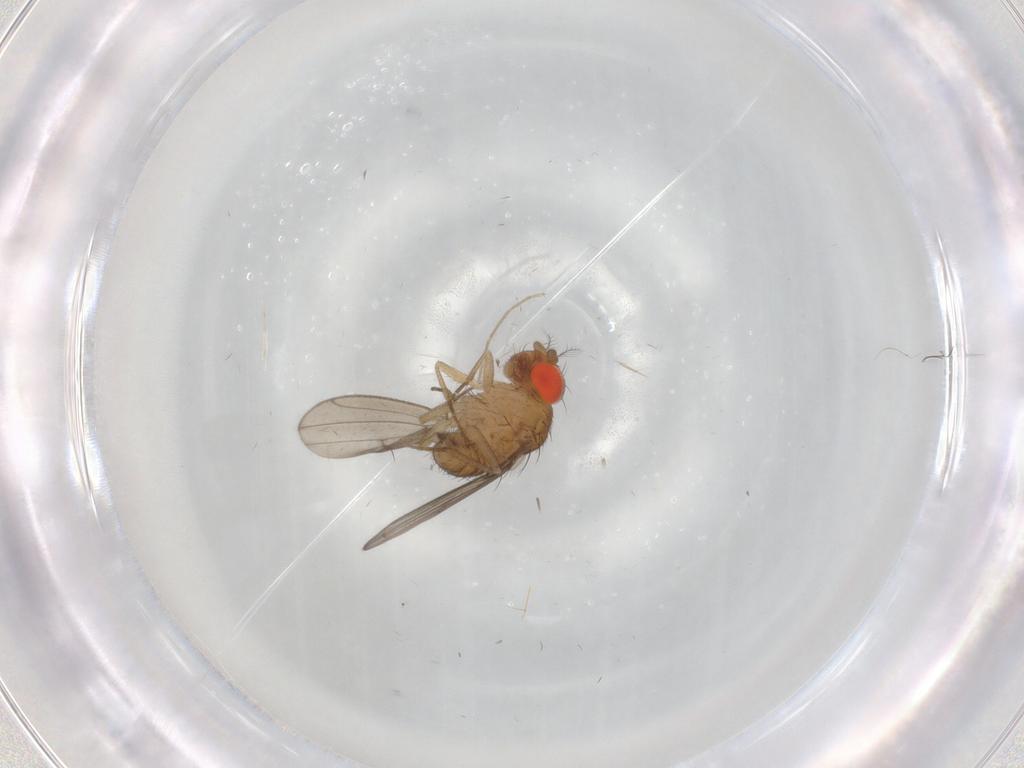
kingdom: Animalia
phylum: Arthropoda
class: Insecta
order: Diptera
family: Drosophilidae
